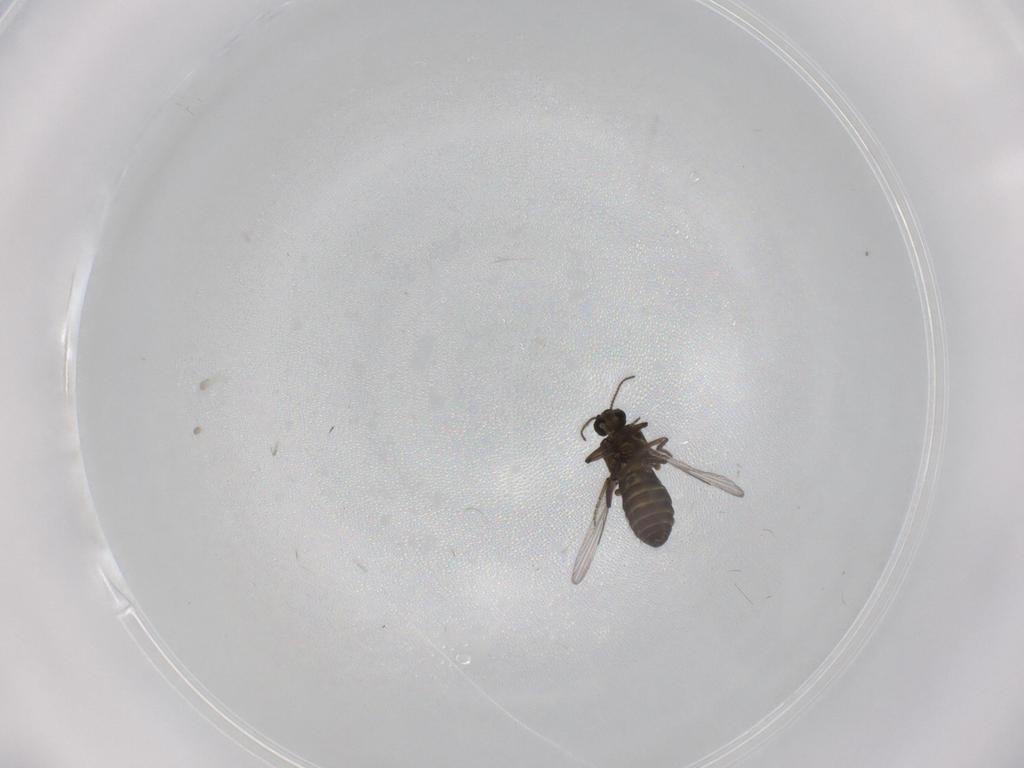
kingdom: Animalia
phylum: Arthropoda
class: Insecta
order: Diptera
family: Ceratopogonidae
